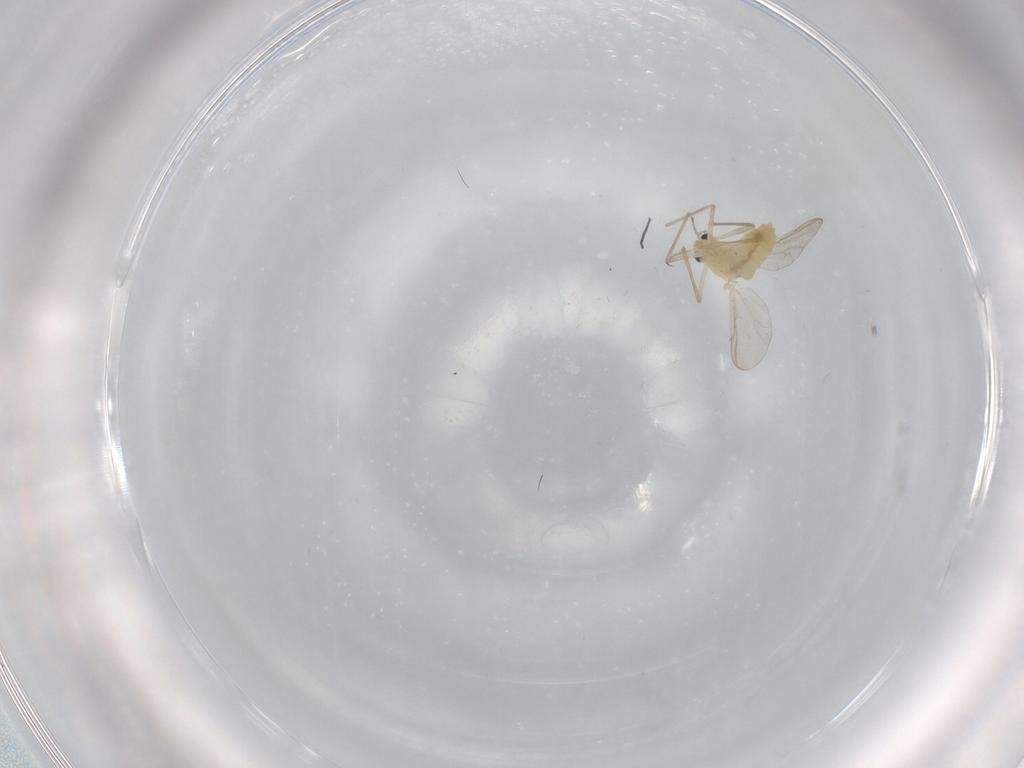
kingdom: Animalia
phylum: Arthropoda
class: Insecta
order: Diptera
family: Chironomidae
